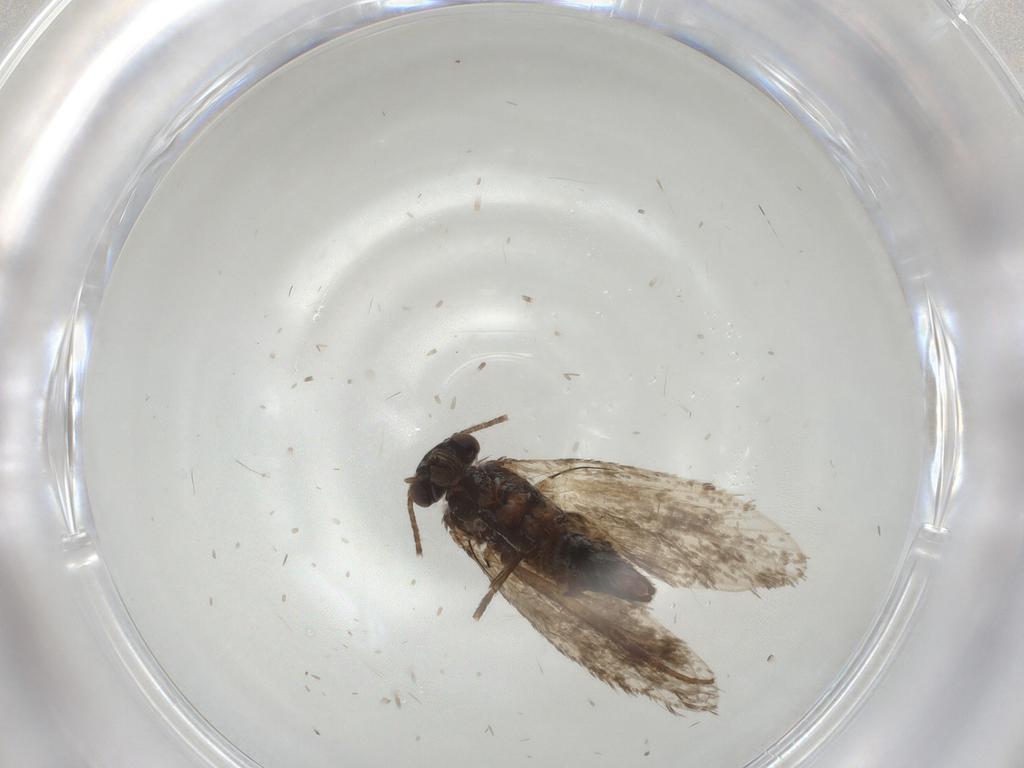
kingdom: Animalia
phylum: Arthropoda
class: Insecta
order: Lepidoptera
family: Adelidae
